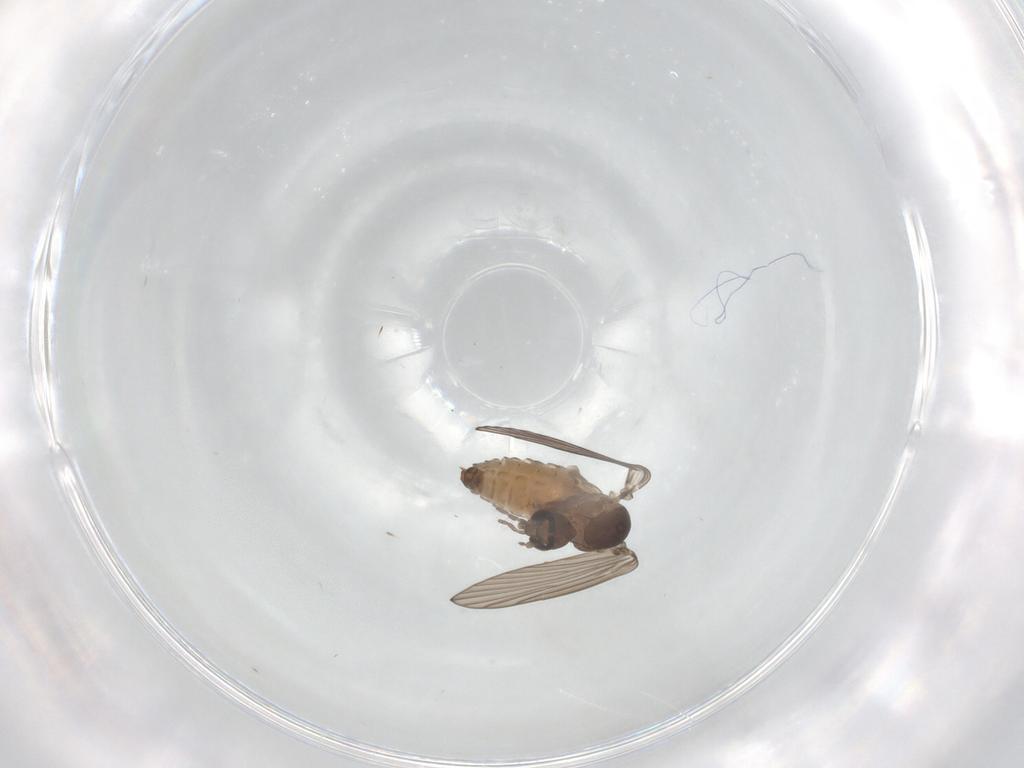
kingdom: Animalia
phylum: Arthropoda
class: Insecta
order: Diptera
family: Psychodidae
